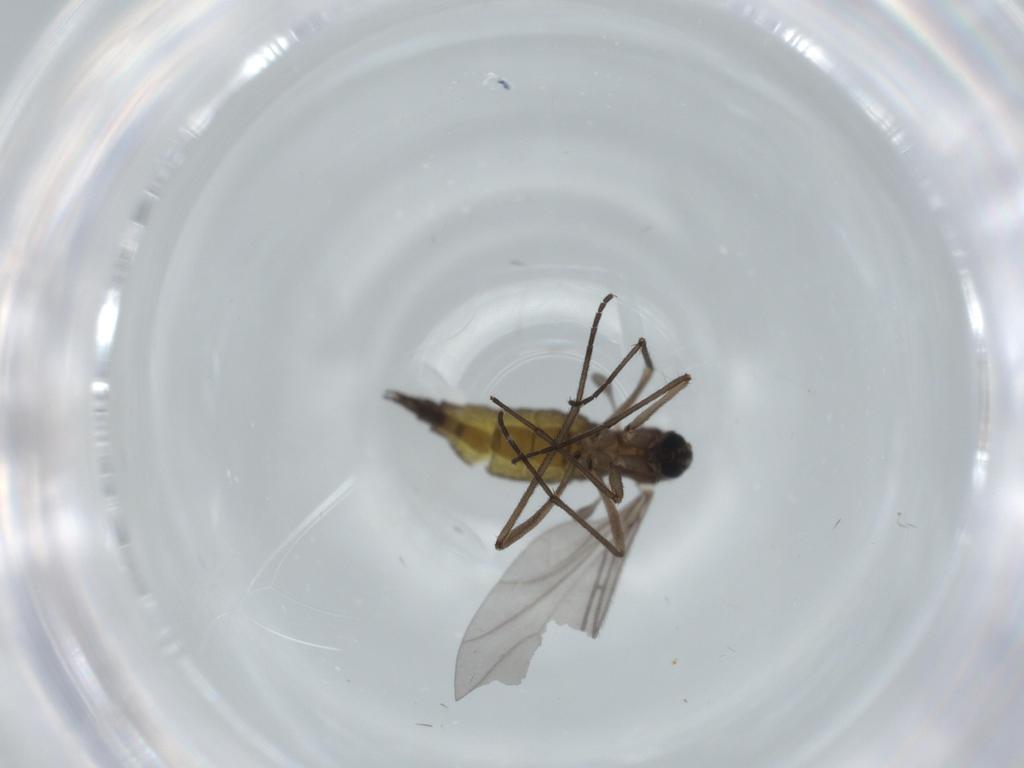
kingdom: Animalia
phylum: Arthropoda
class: Insecta
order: Diptera
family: Sciaridae
